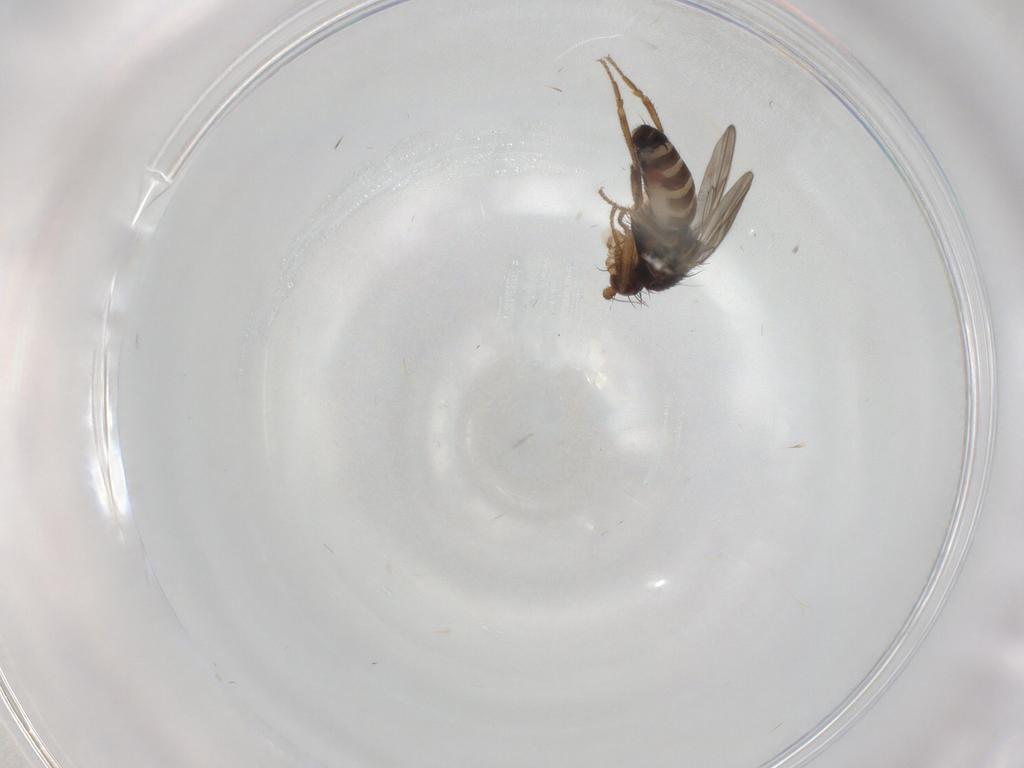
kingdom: Animalia
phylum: Arthropoda
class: Insecta
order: Diptera
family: Sphaeroceridae
